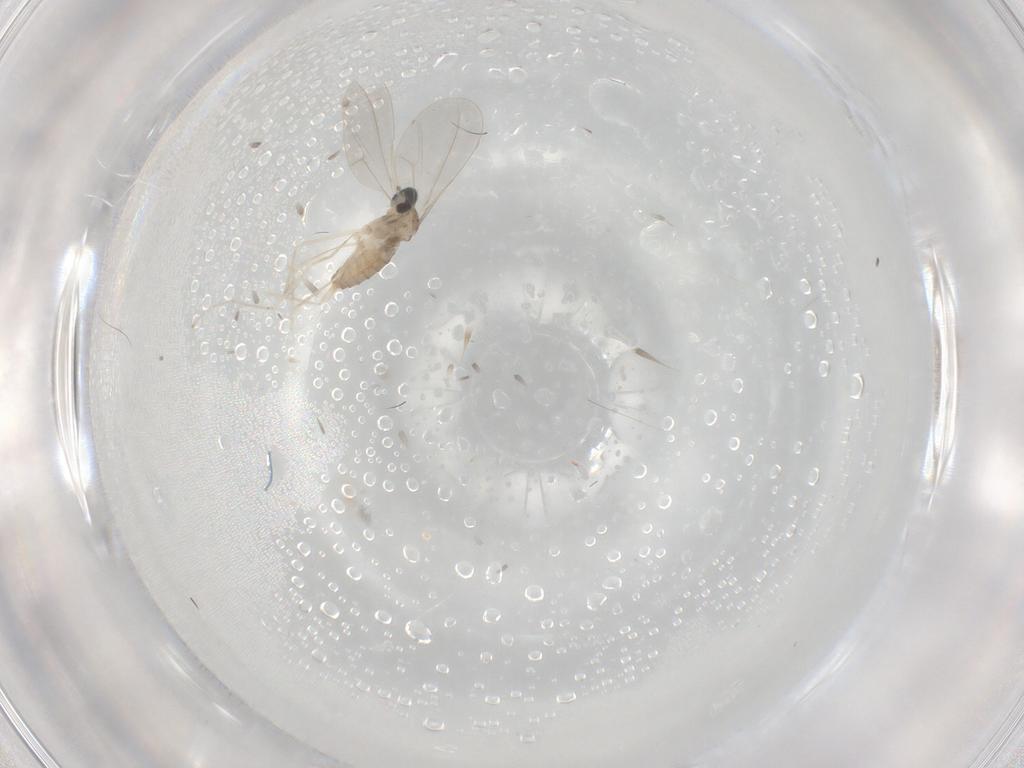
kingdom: Animalia
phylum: Arthropoda
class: Insecta
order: Diptera
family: Cecidomyiidae
